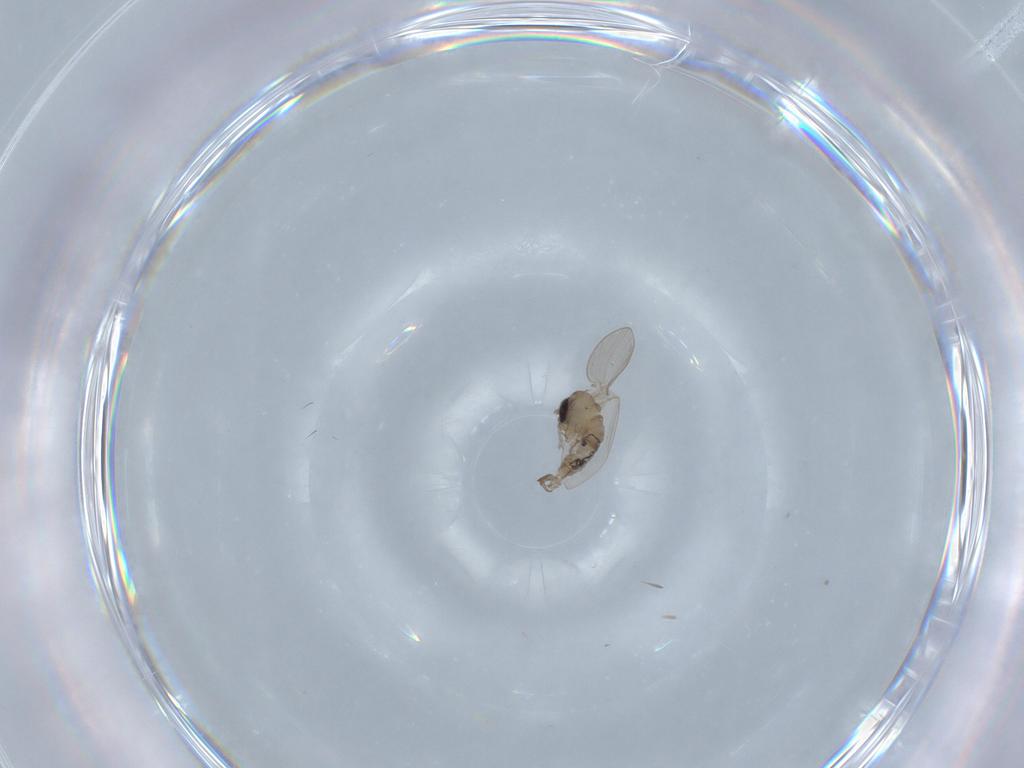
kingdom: Animalia
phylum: Arthropoda
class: Insecta
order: Diptera
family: Psychodidae
